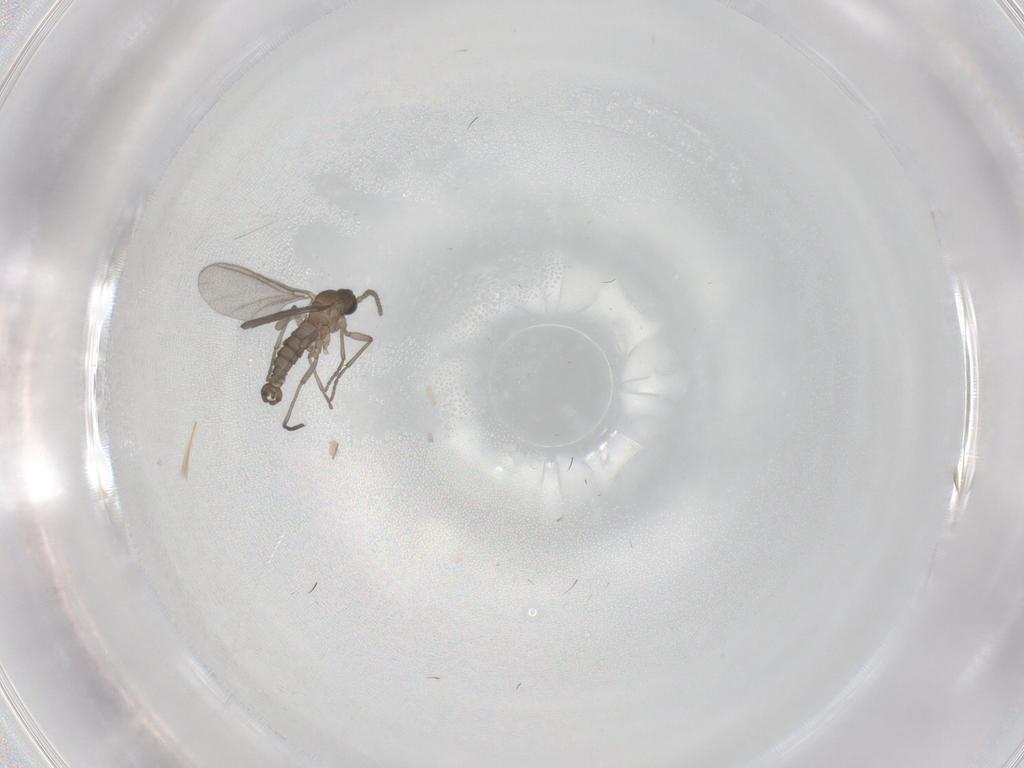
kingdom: Animalia
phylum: Arthropoda
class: Insecta
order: Diptera
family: Sciaridae
